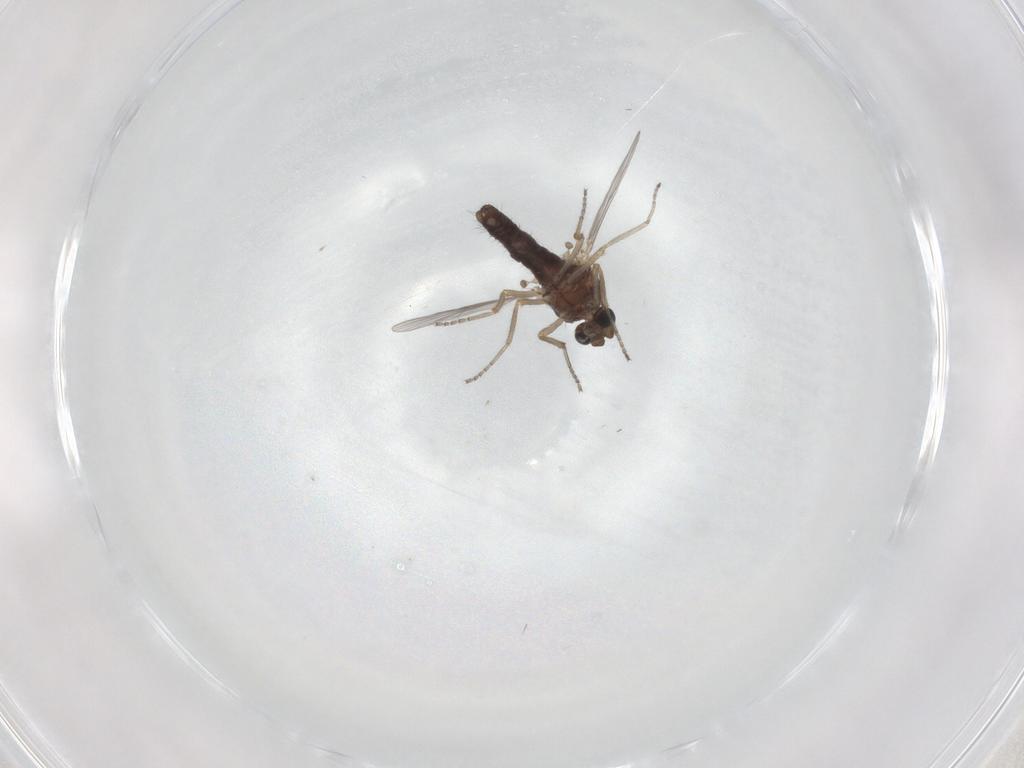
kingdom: Animalia
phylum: Arthropoda
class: Insecta
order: Diptera
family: Ceratopogonidae
